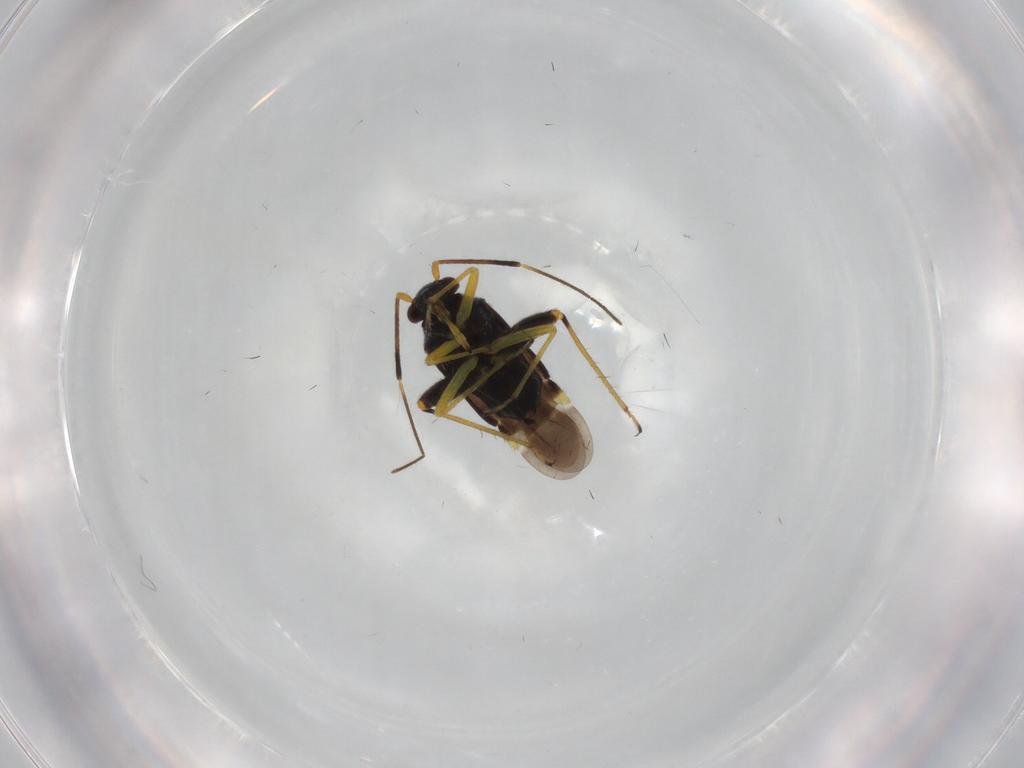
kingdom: Animalia
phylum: Arthropoda
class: Insecta
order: Hemiptera
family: Miridae
